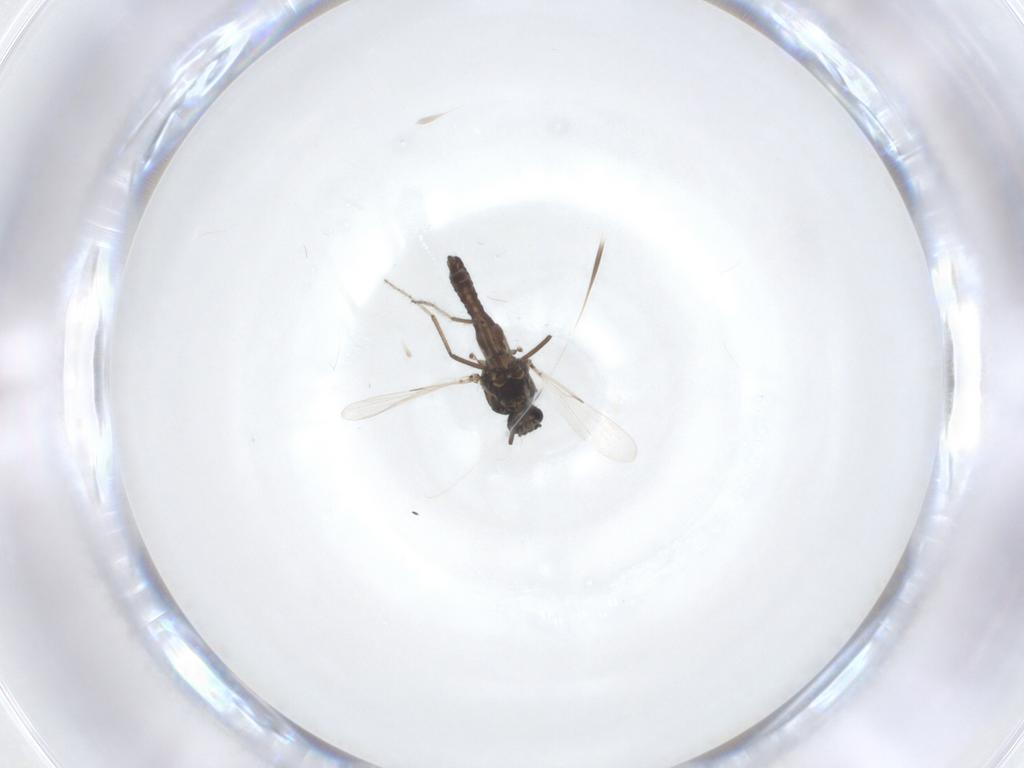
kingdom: Animalia
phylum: Arthropoda
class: Insecta
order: Diptera
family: Ceratopogonidae
